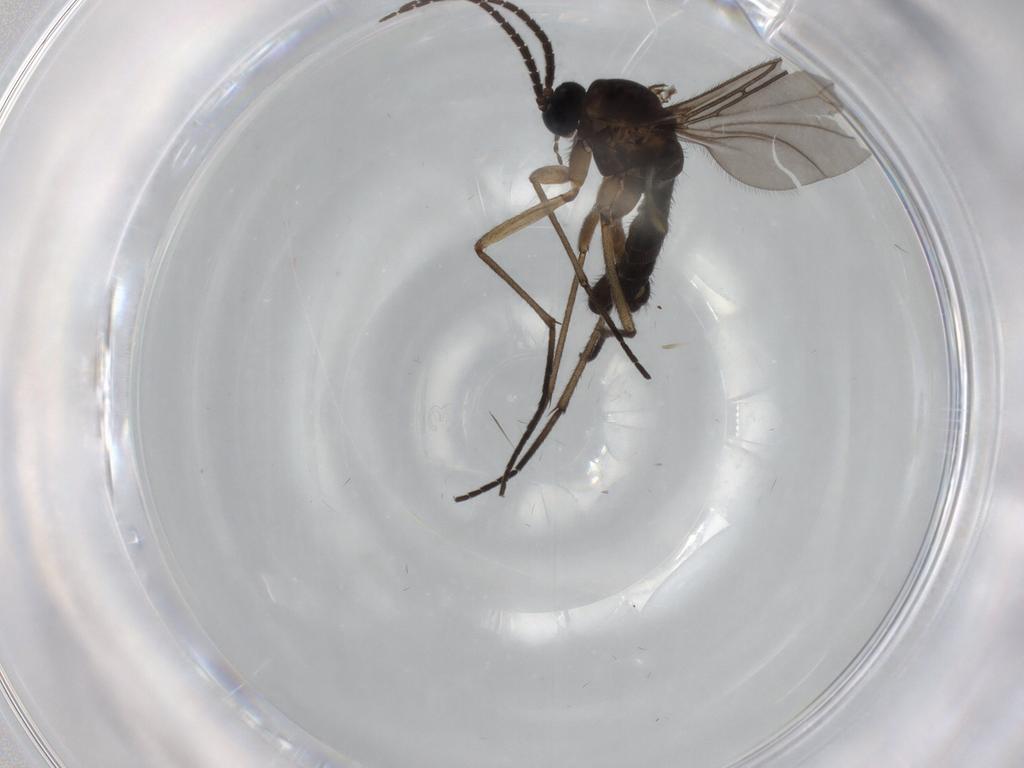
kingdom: Animalia
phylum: Arthropoda
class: Insecta
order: Diptera
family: Sciaridae
